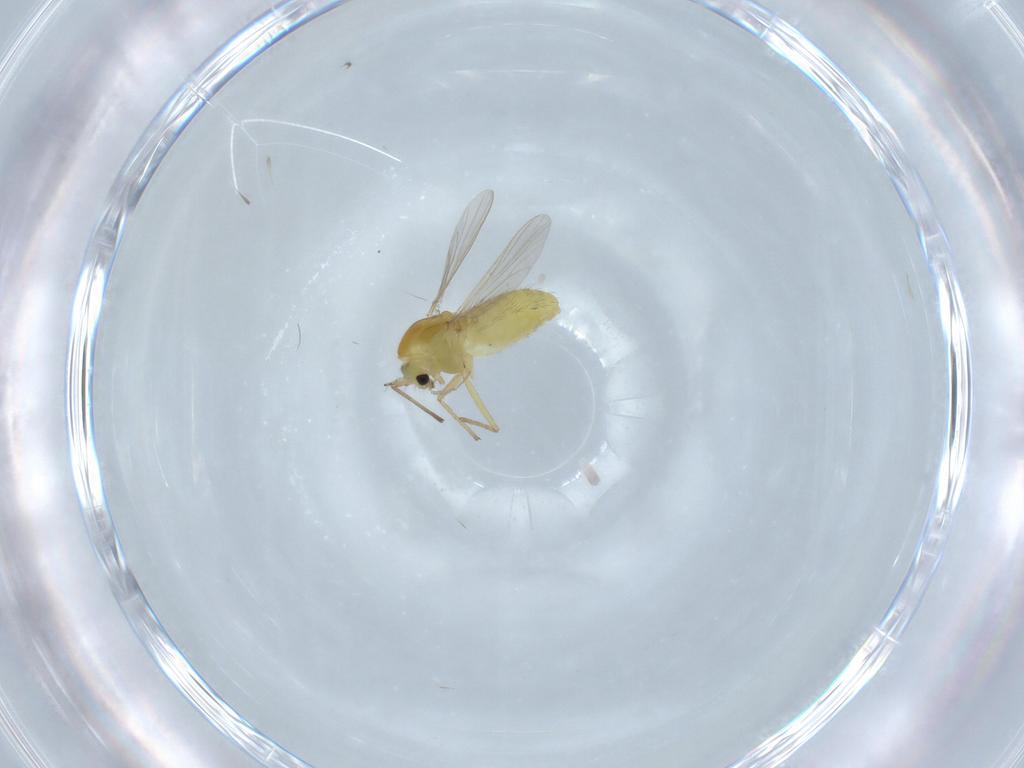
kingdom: Animalia
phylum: Arthropoda
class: Insecta
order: Diptera
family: Chironomidae
